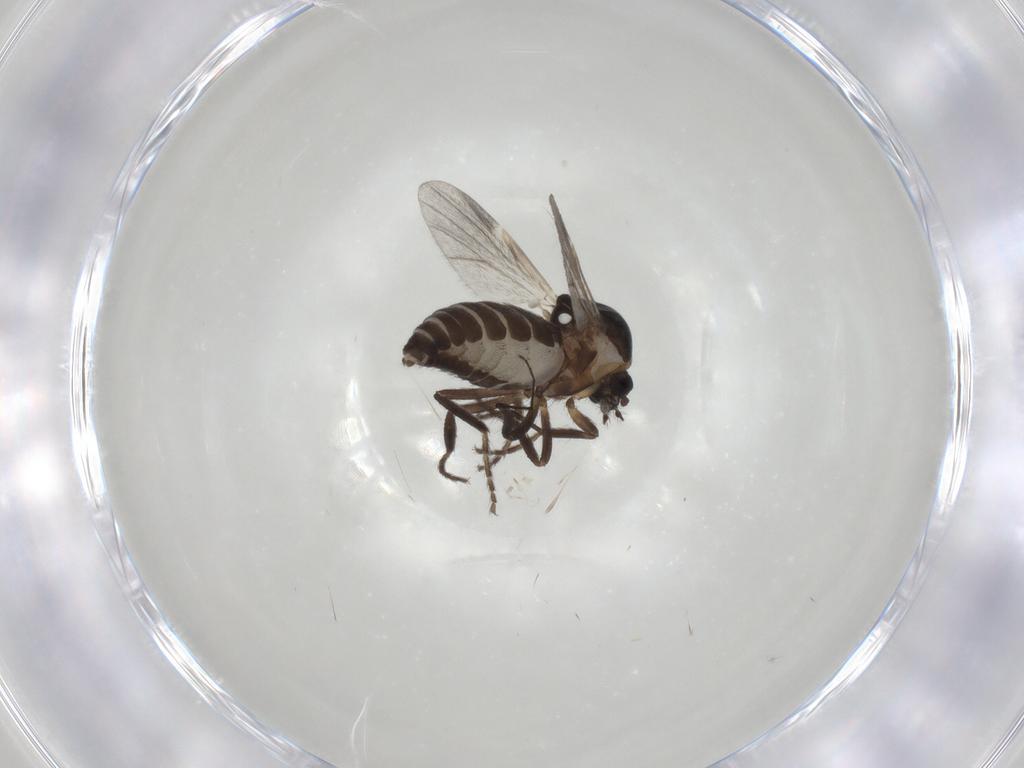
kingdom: Animalia
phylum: Arthropoda
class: Insecta
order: Diptera
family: Ceratopogonidae
